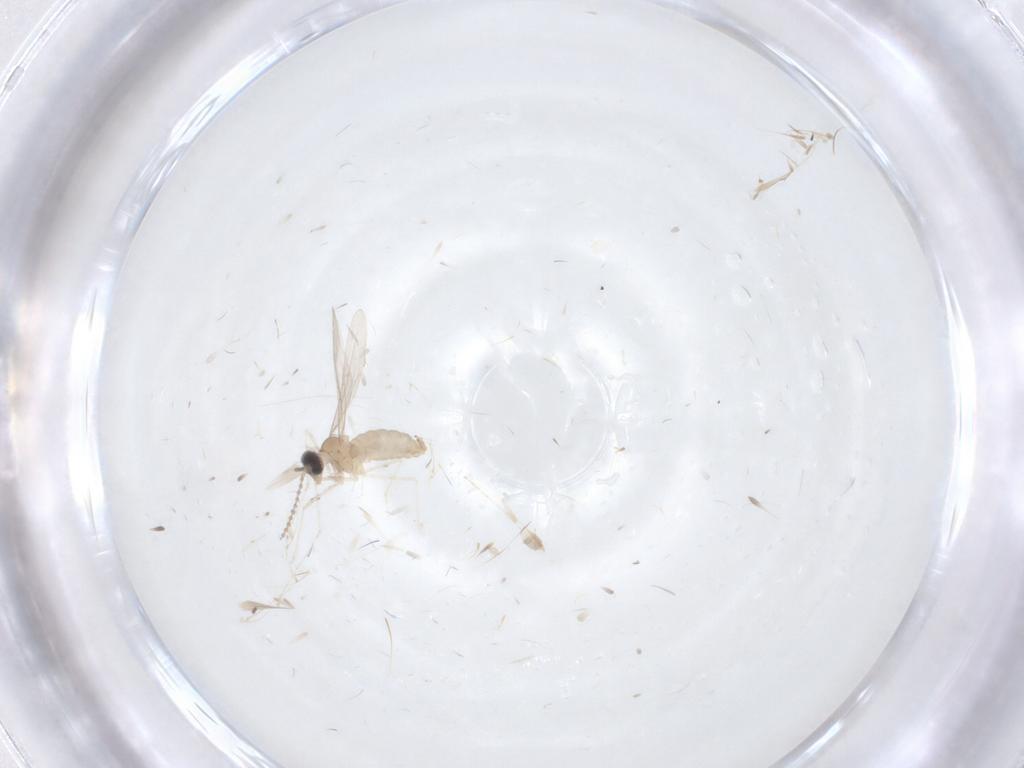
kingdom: Animalia
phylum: Arthropoda
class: Insecta
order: Diptera
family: Cecidomyiidae
